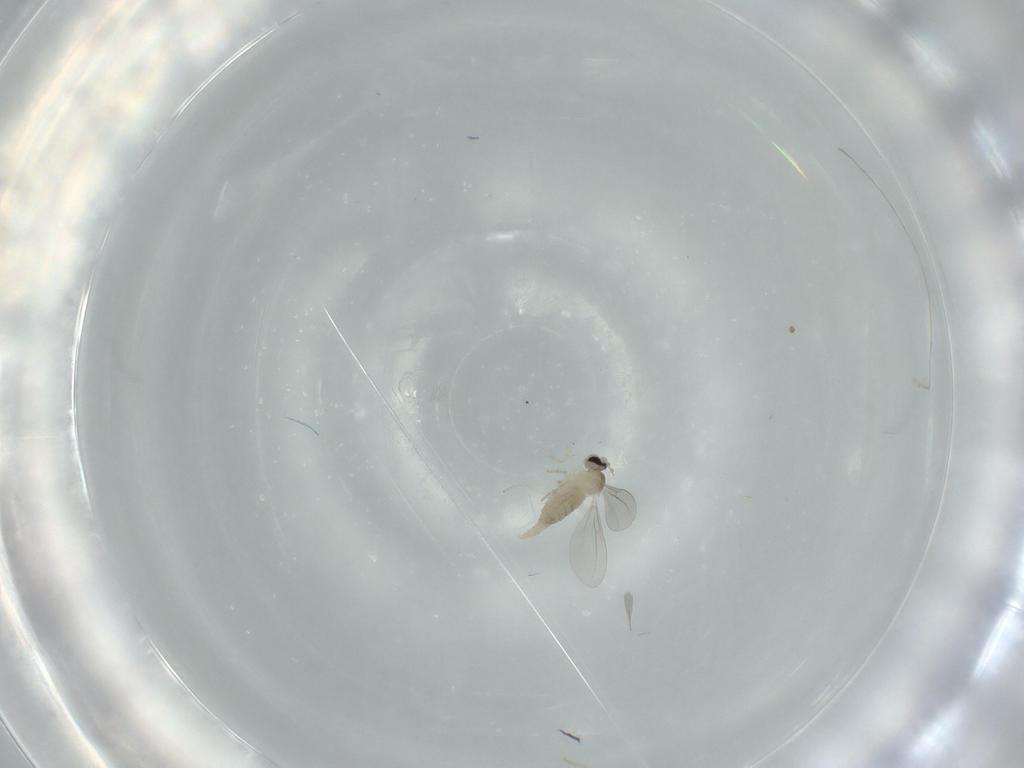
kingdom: Animalia
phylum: Arthropoda
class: Insecta
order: Diptera
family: Cecidomyiidae
